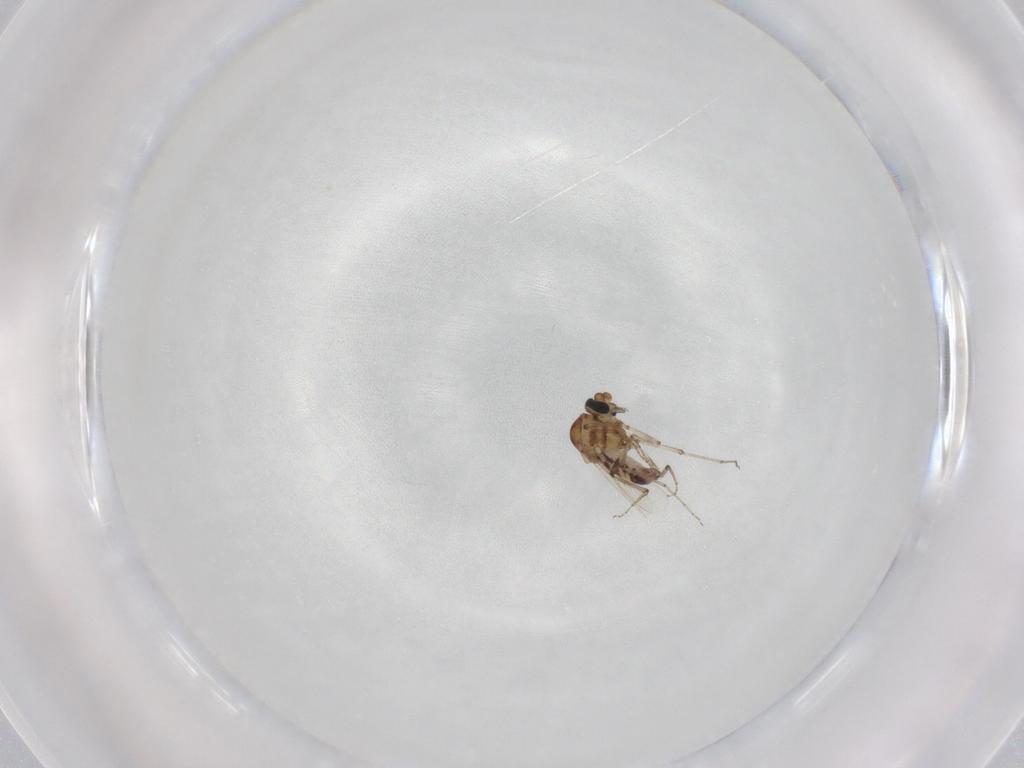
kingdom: Animalia
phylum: Arthropoda
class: Insecta
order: Diptera
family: Ceratopogonidae
